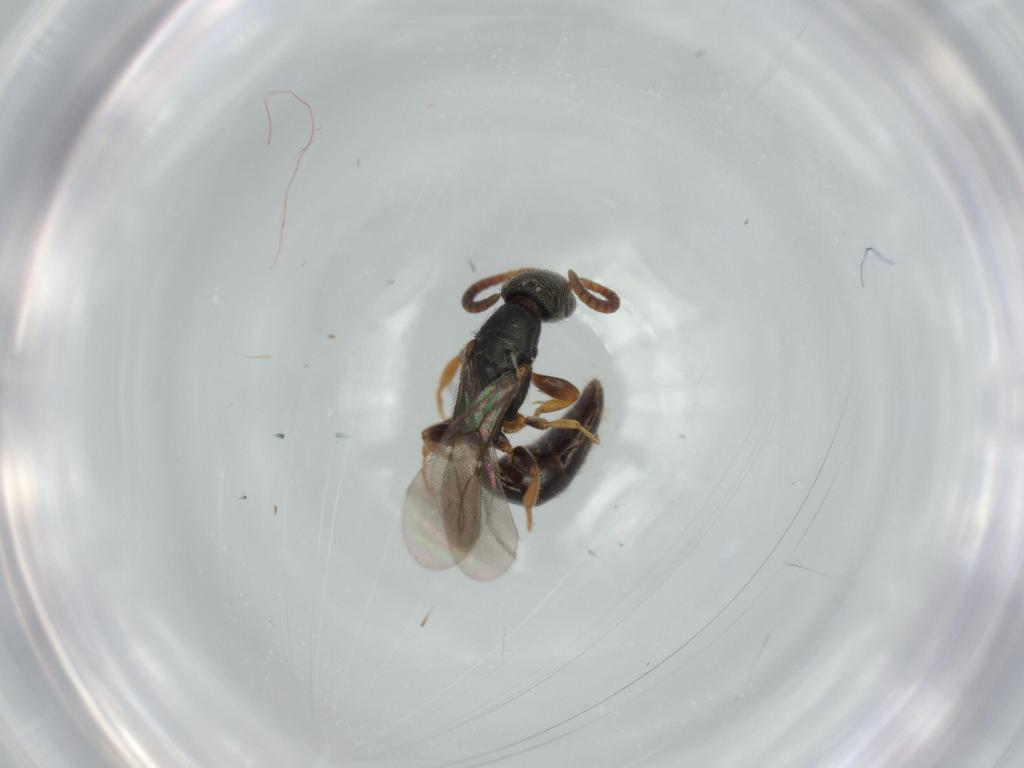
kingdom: Animalia
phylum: Arthropoda
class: Insecta
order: Hymenoptera
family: Bethylidae
